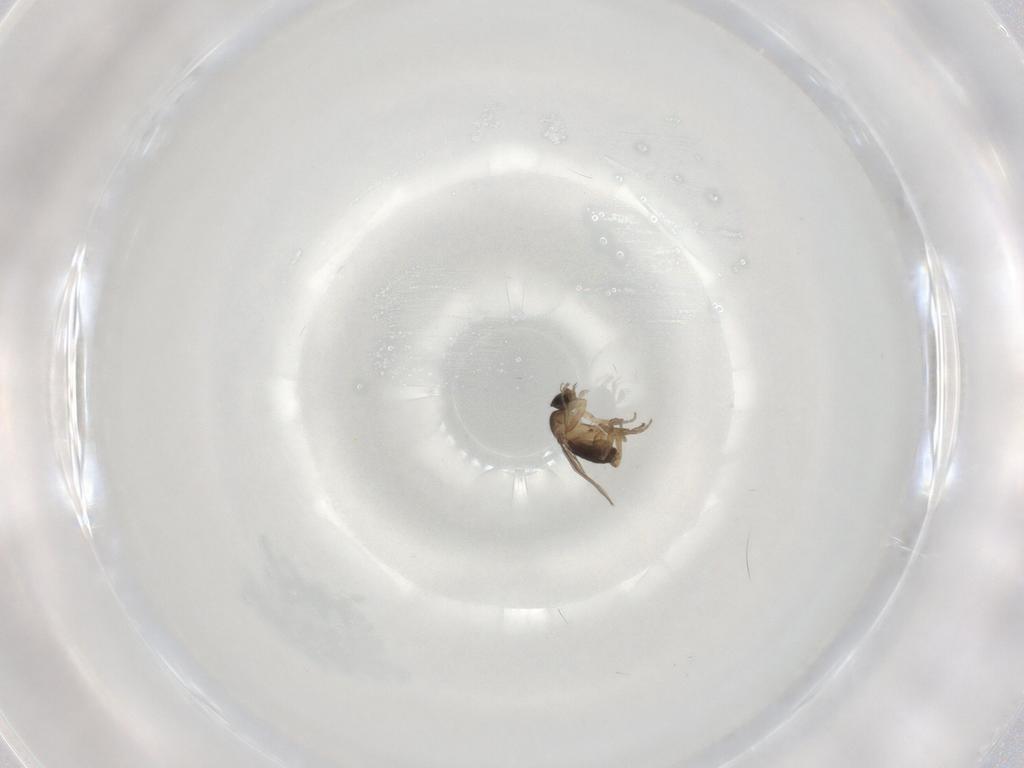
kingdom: Animalia
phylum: Arthropoda
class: Insecta
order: Diptera
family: Phoridae
